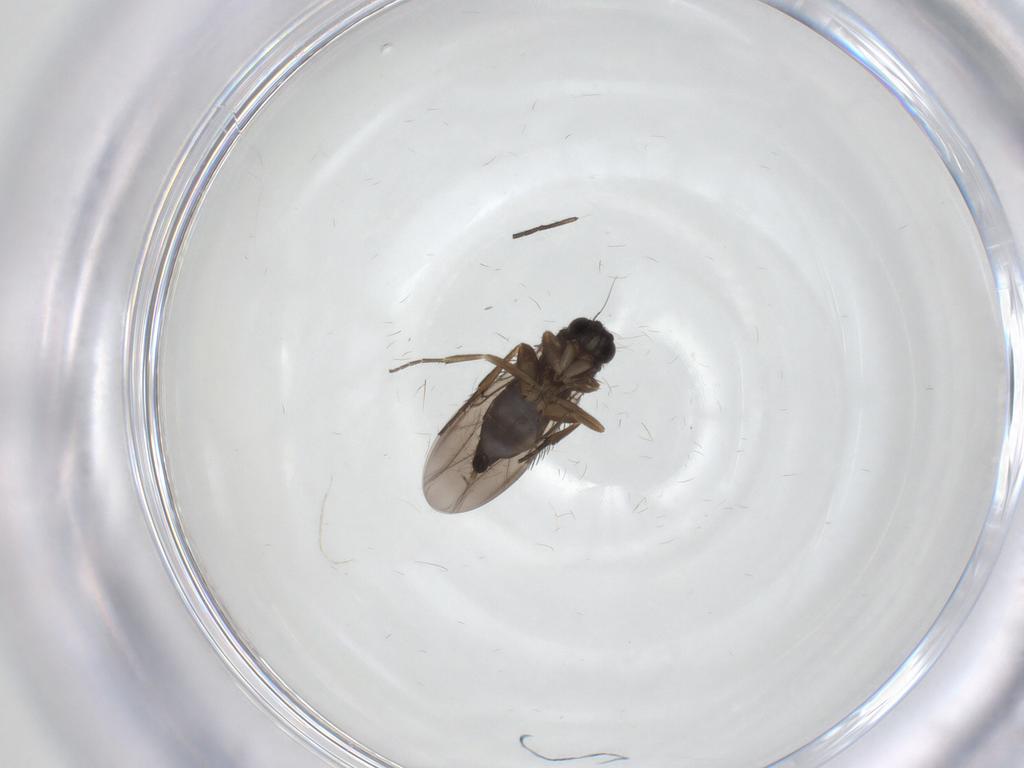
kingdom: Animalia
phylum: Arthropoda
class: Insecta
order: Diptera
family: Phoridae
